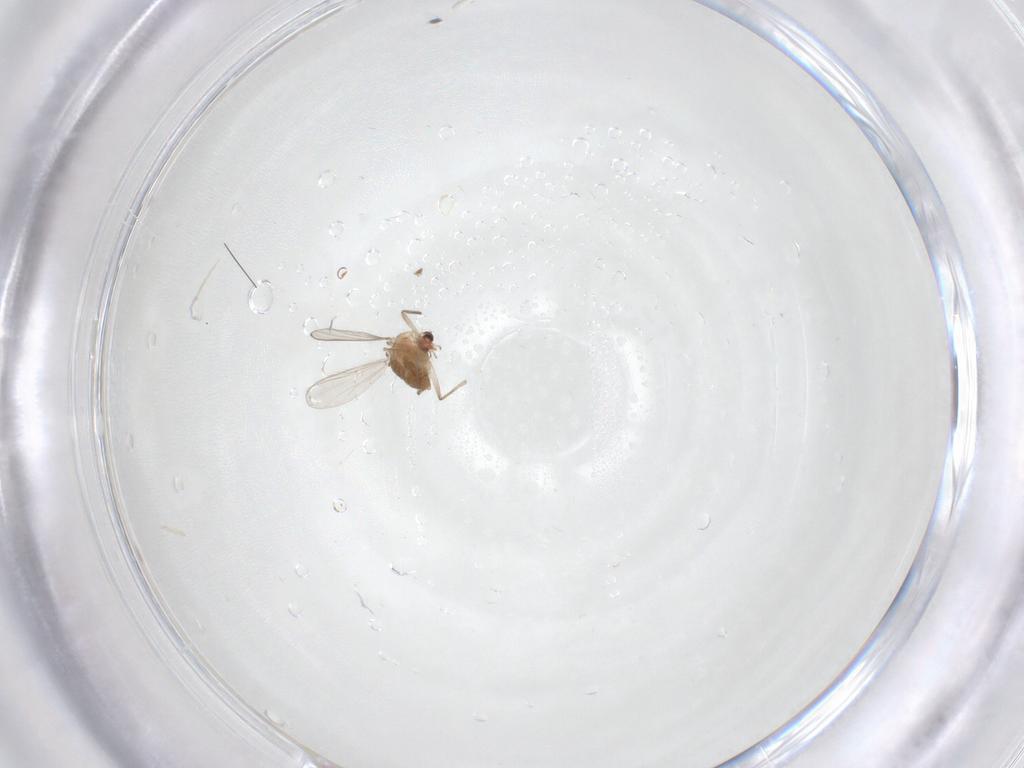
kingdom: Animalia
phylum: Arthropoda
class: Insecta
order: Diptera
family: Chironomidae
